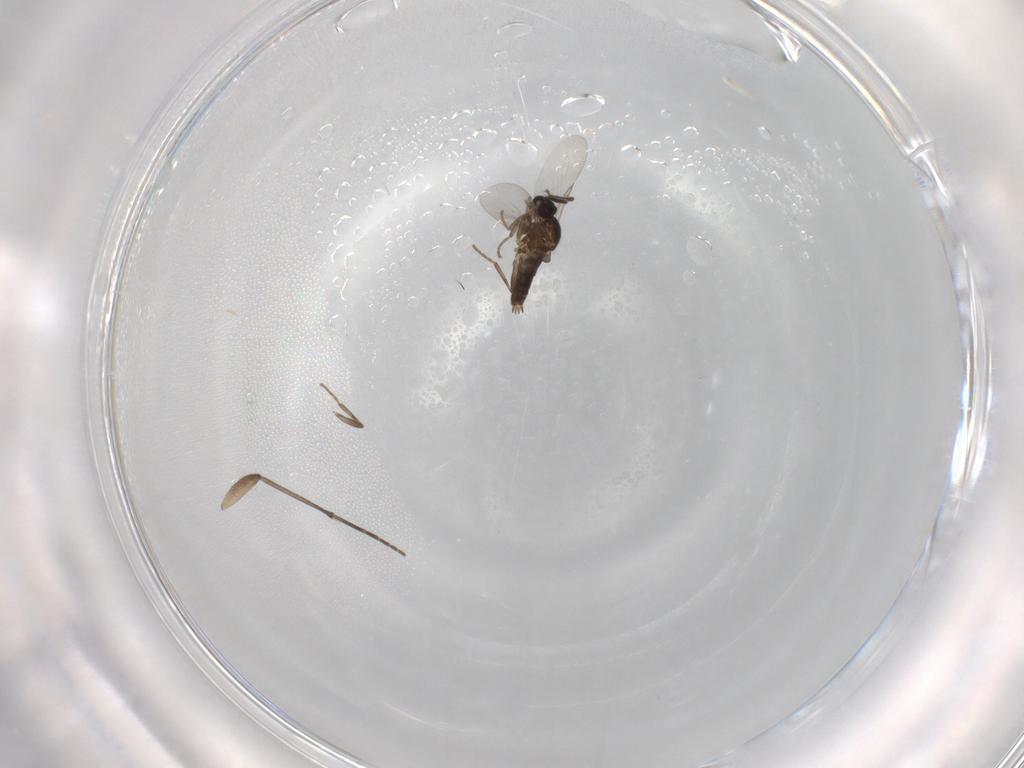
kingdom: Animalia
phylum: Arthropoda
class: Insecta
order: Diptera
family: Scatopsidae
